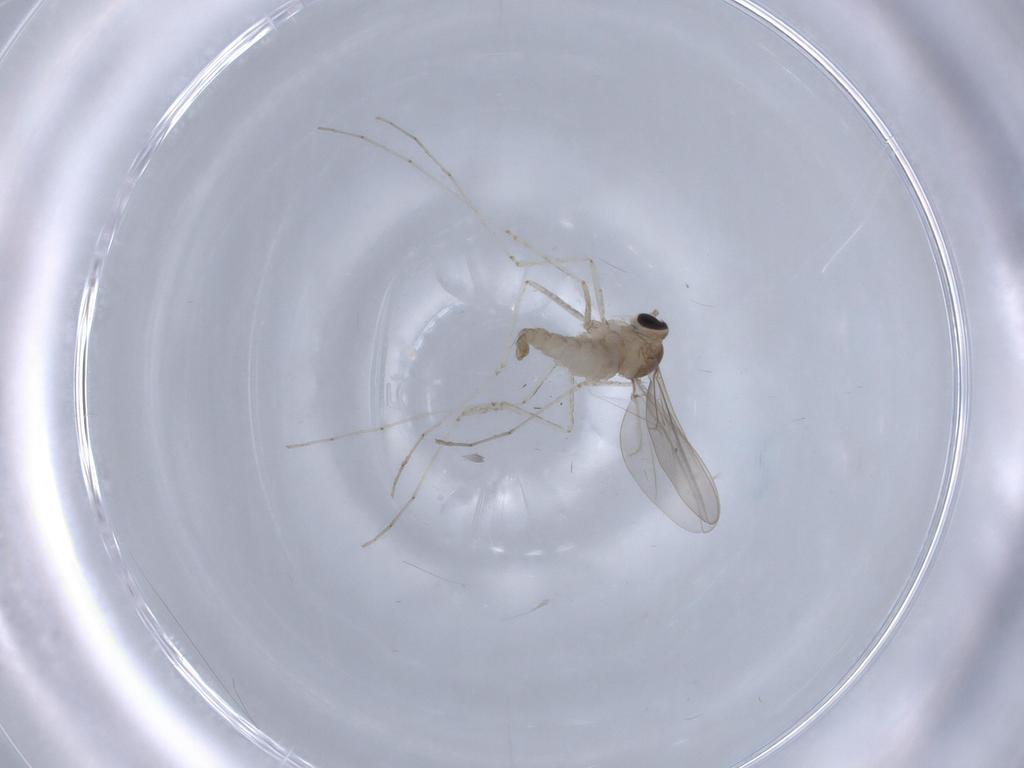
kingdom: Animalia
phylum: Arthropoda
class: Insecta
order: Diptera
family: Cecidomyiidae
